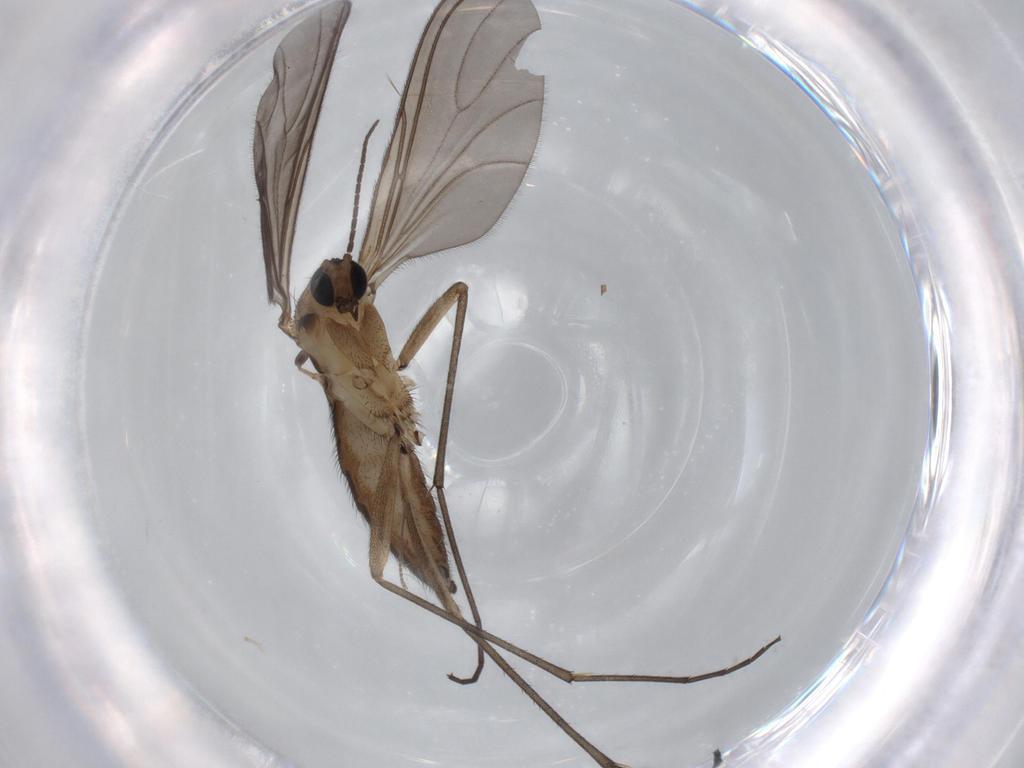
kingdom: Animalia
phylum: Arthropoda
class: Insecta
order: Diptera
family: Sciaridae
